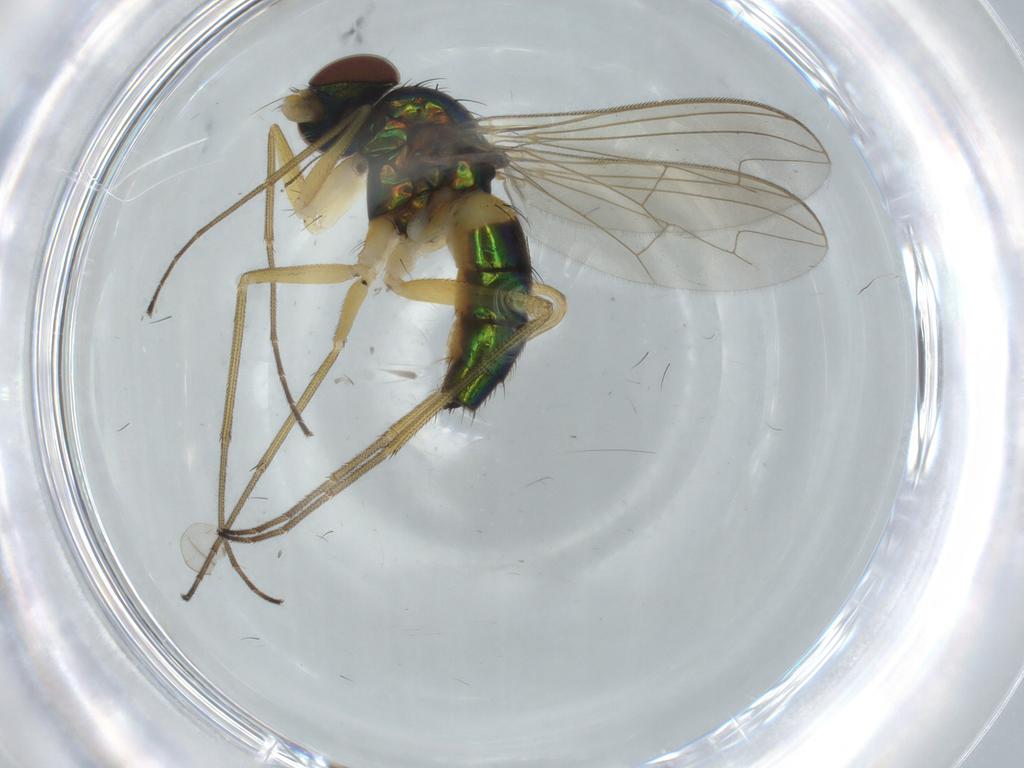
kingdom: Animalia
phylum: Arthropoda
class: Insecta
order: Diptera
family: Dolichopodidae
